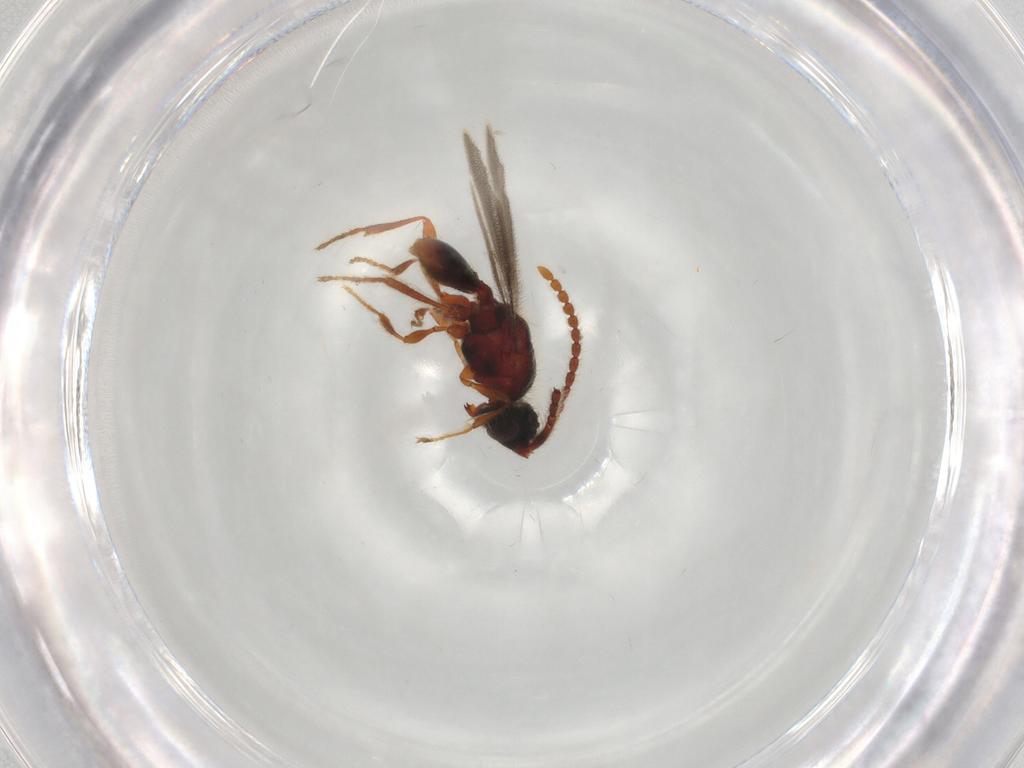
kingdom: Animalia
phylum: Arthropoda
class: Insecta
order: Hymenoptera
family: Diapriidae
